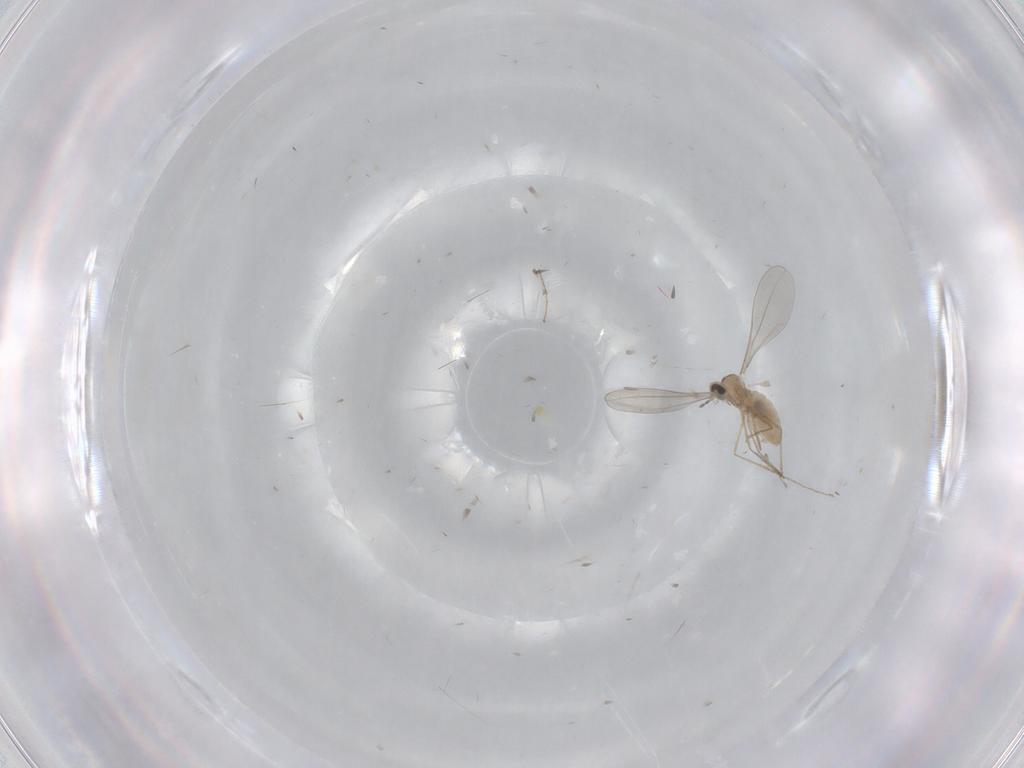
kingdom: Animalia
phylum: Arthropoda
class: Insecta
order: Diptera
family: Cecidomyiidae
